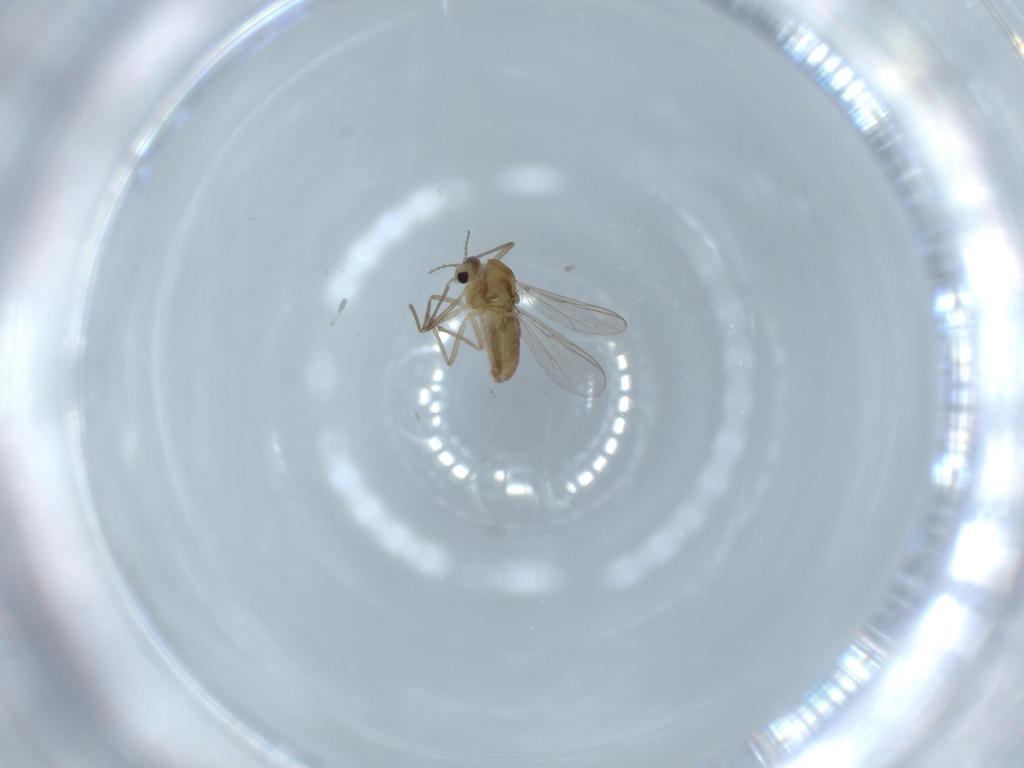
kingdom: Animalia
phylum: Arthropoda
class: Insecta
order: Diptera
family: Chironomidae
